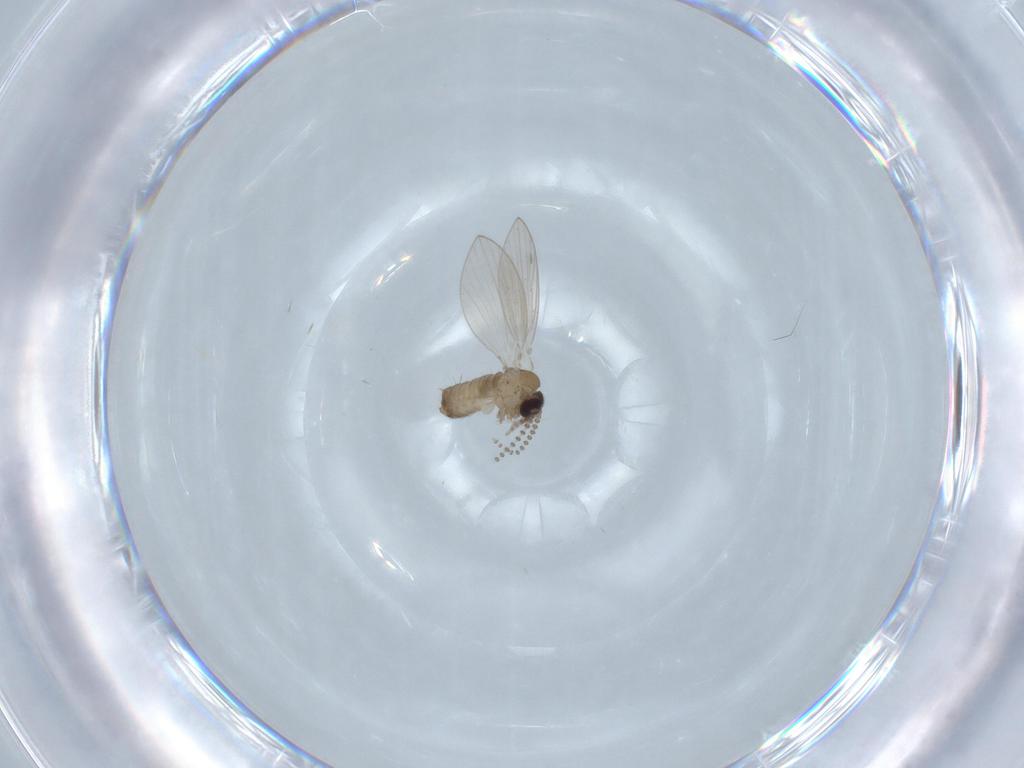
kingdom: Animalia
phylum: Arthropoda
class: Insecta
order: Diptera
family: Psychodidae
